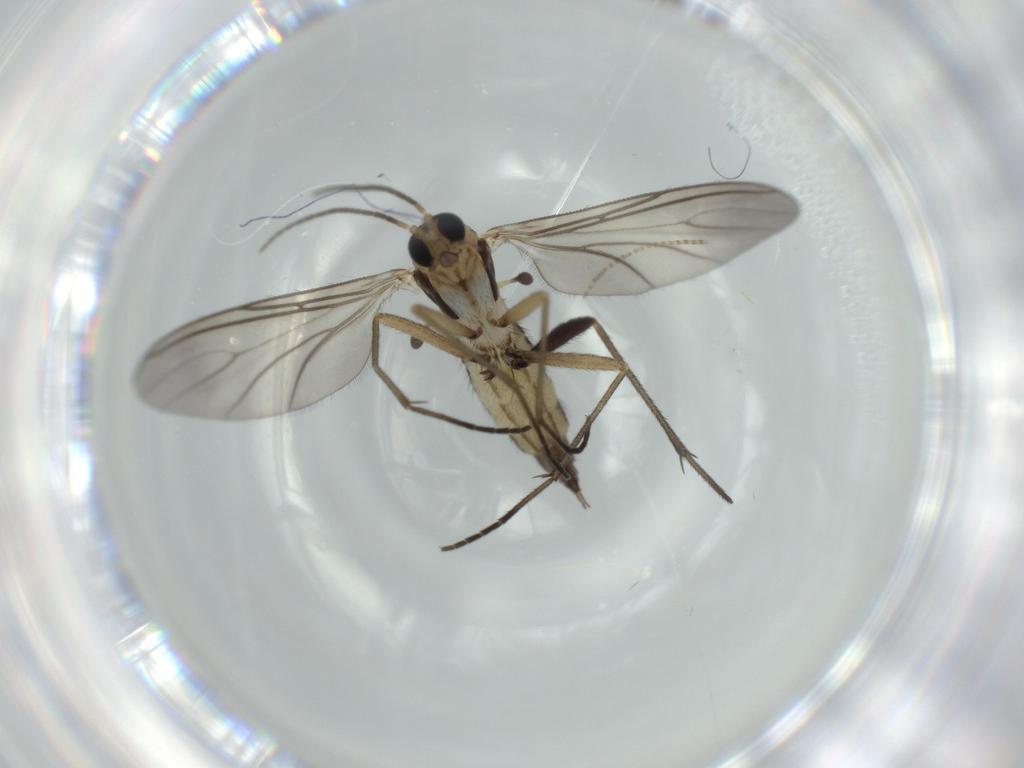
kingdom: Animalia
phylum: Arthropoda
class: Insecta
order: Diptera
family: Sciaridae
